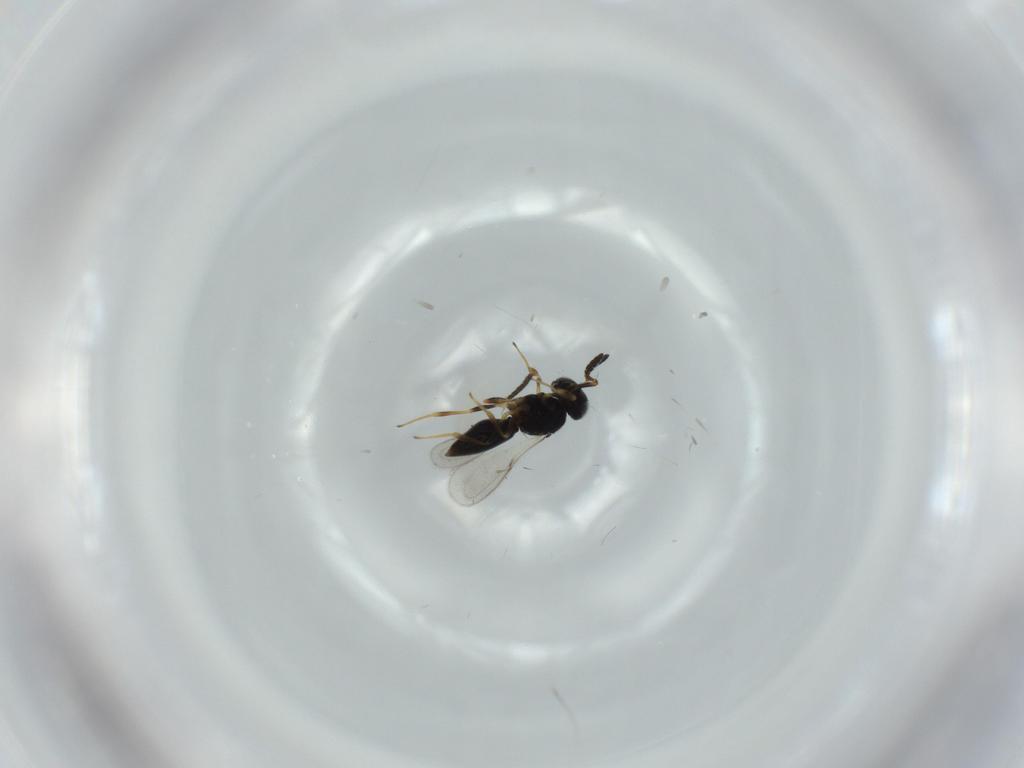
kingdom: Animalia
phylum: Arthropoda
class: Insecta
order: Hymenoptera
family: Scelionidae
